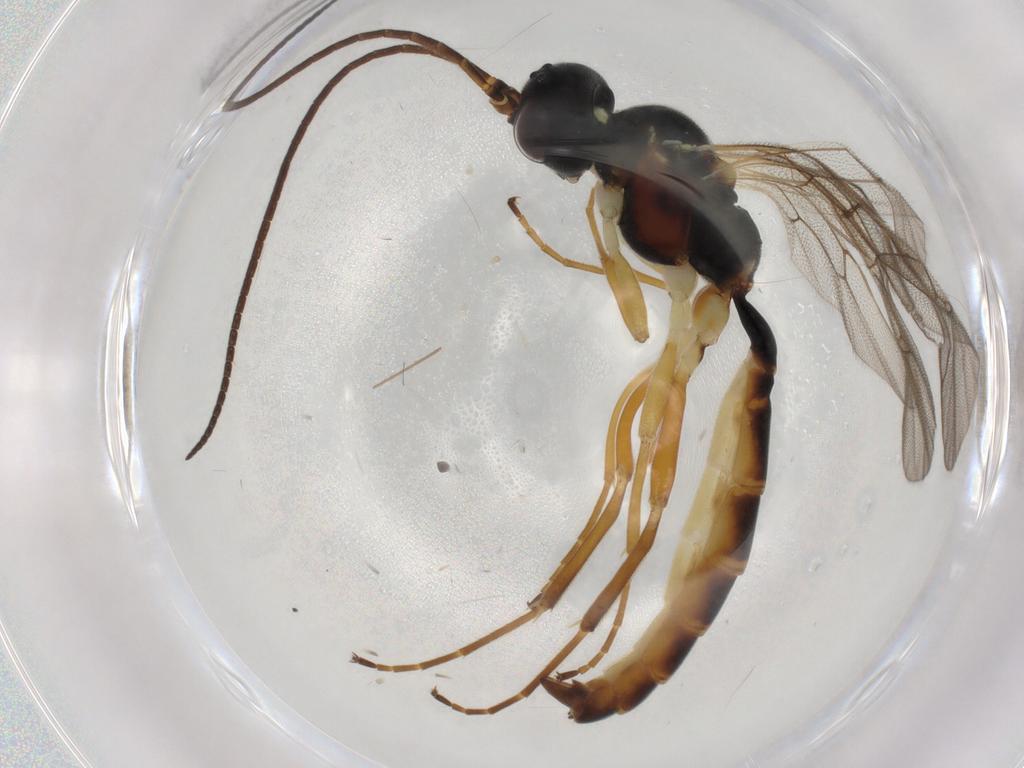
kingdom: Animalia
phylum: Arthropoda
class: Insecta
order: Hymenoptera
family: Ichneumonidae
